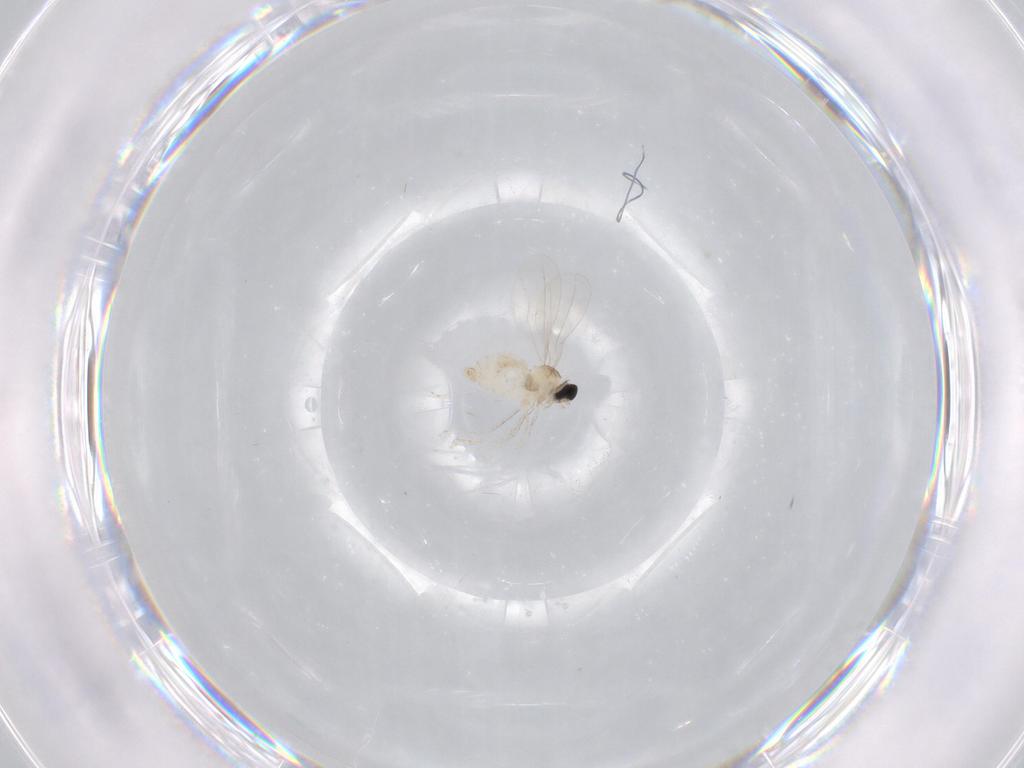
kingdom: Animalia
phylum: Arthropoda
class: Insecta
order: Diptera
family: Cecidomyiidae
